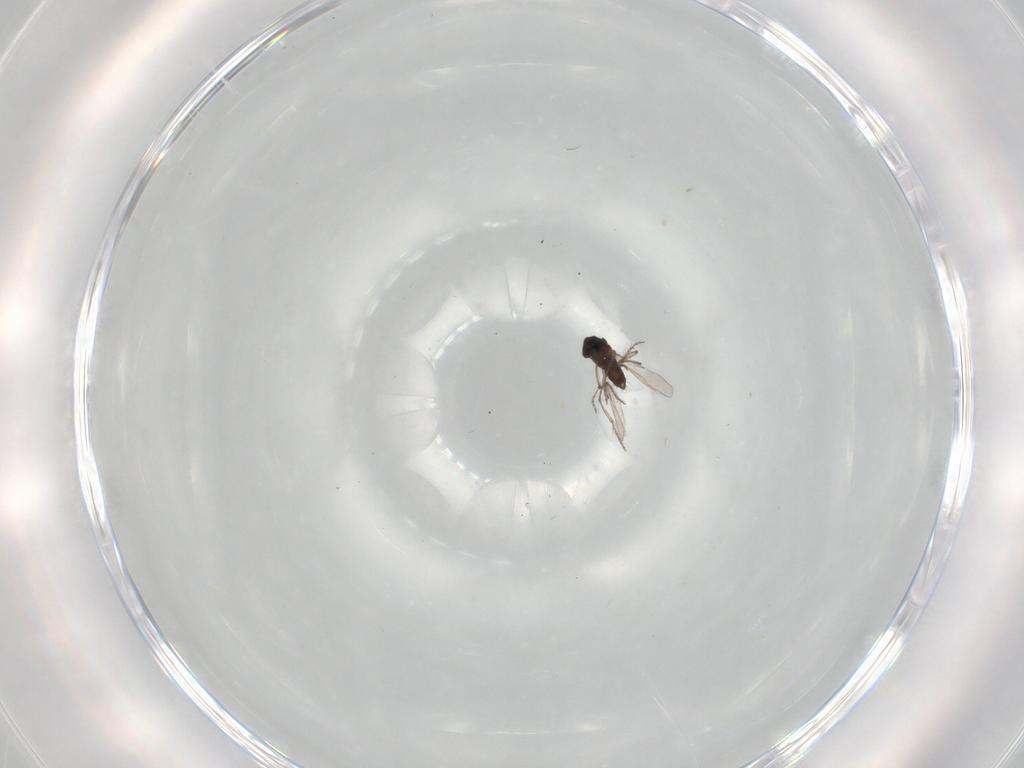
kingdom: Animalia
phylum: Arthropoda
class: Insecta
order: Diptera
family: Ceratopogonidae
